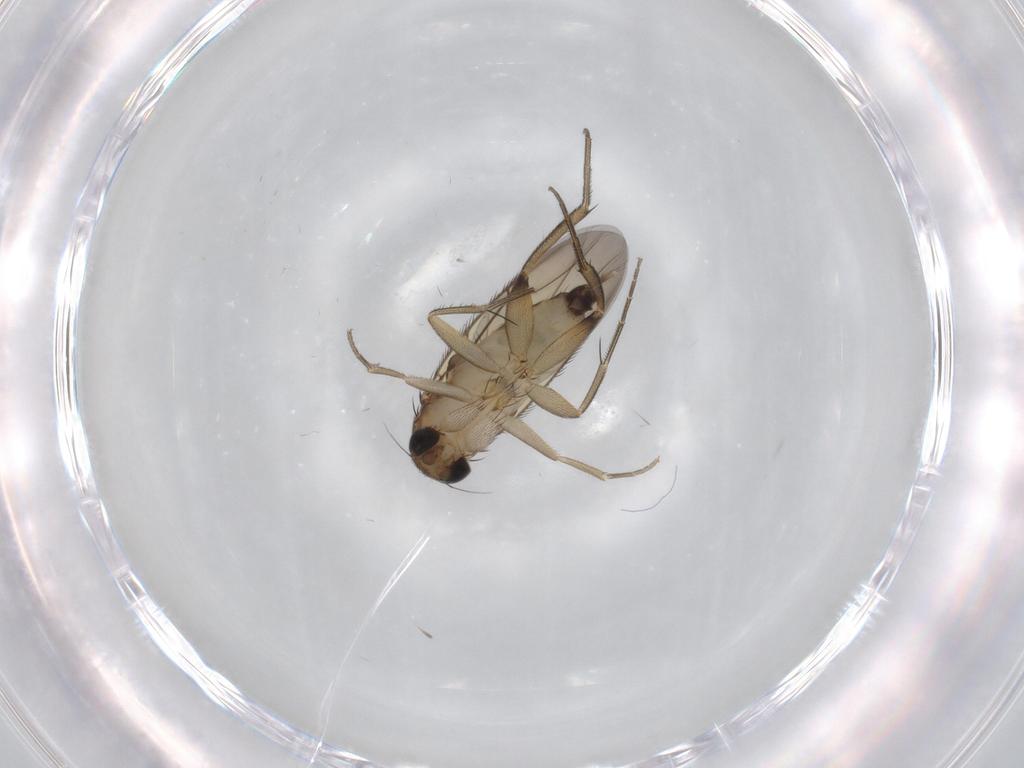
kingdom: Animalia
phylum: Arthropoda
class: Insecta
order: Diptera
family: Phoridae
